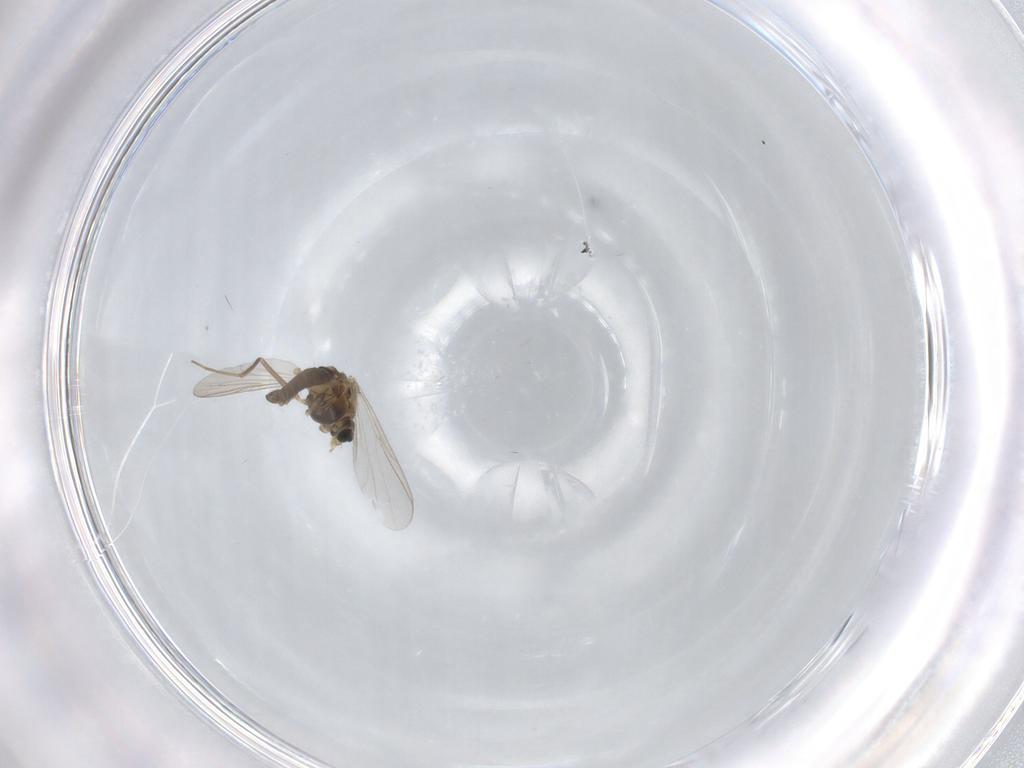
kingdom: Animalia
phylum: Arthropoda
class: Insecta
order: Diptera
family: Chironomidae
